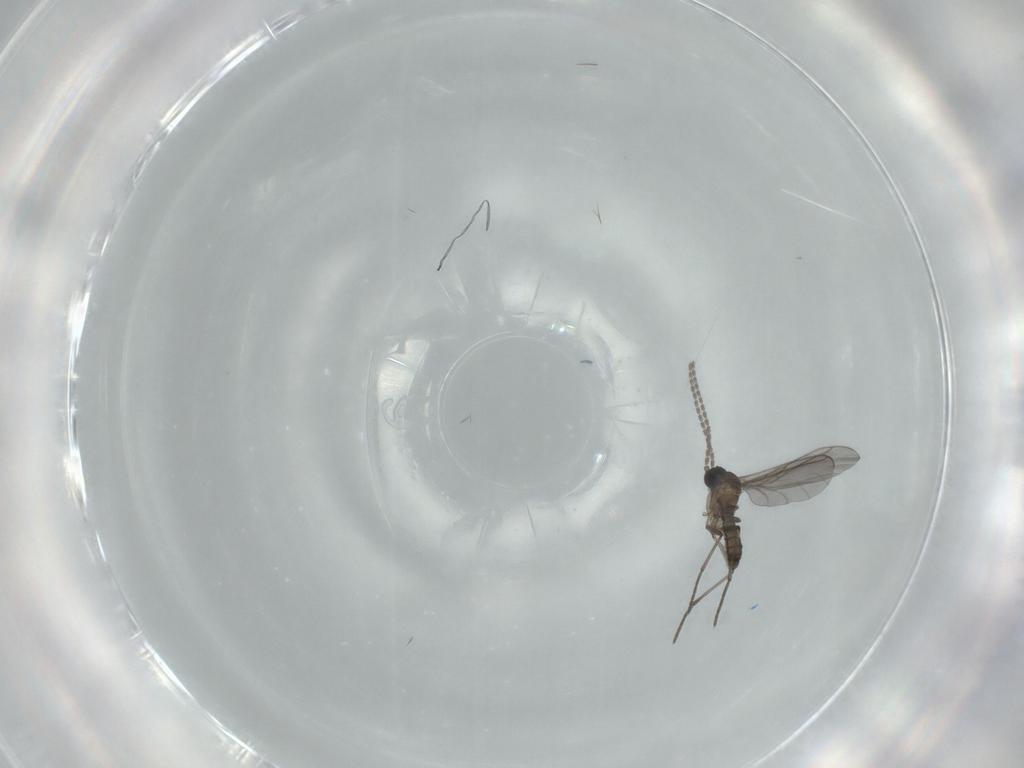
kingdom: Animalia
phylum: Arthropoda
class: Insecta
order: Diptera
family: Sciaridae
